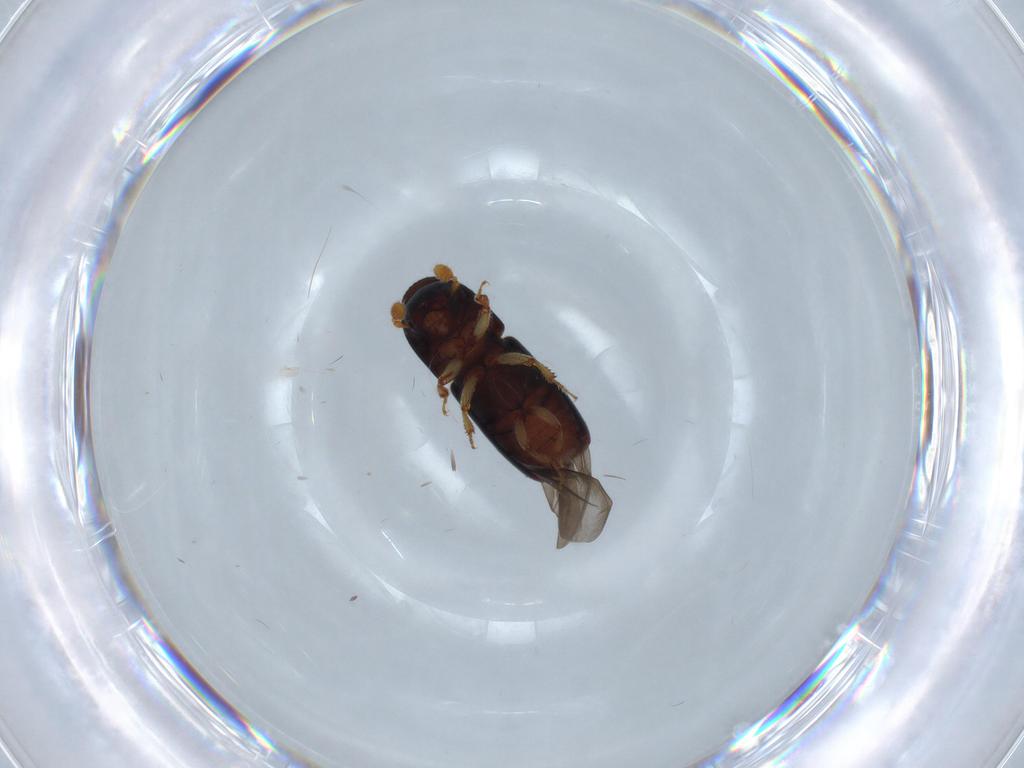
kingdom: Animalia
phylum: Arthropoda
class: Insecta
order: Coleoptera
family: Curculionidae
